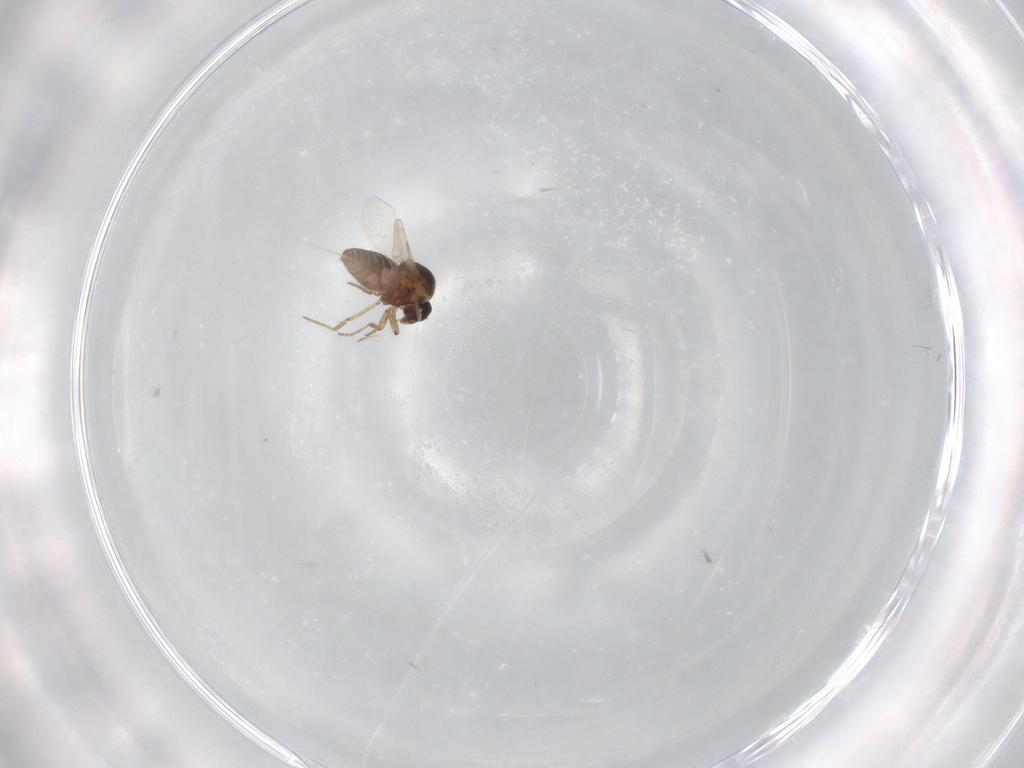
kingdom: Animalia
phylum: Arthropoda
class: Insecta
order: Diptera
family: Ceratopogonidae
